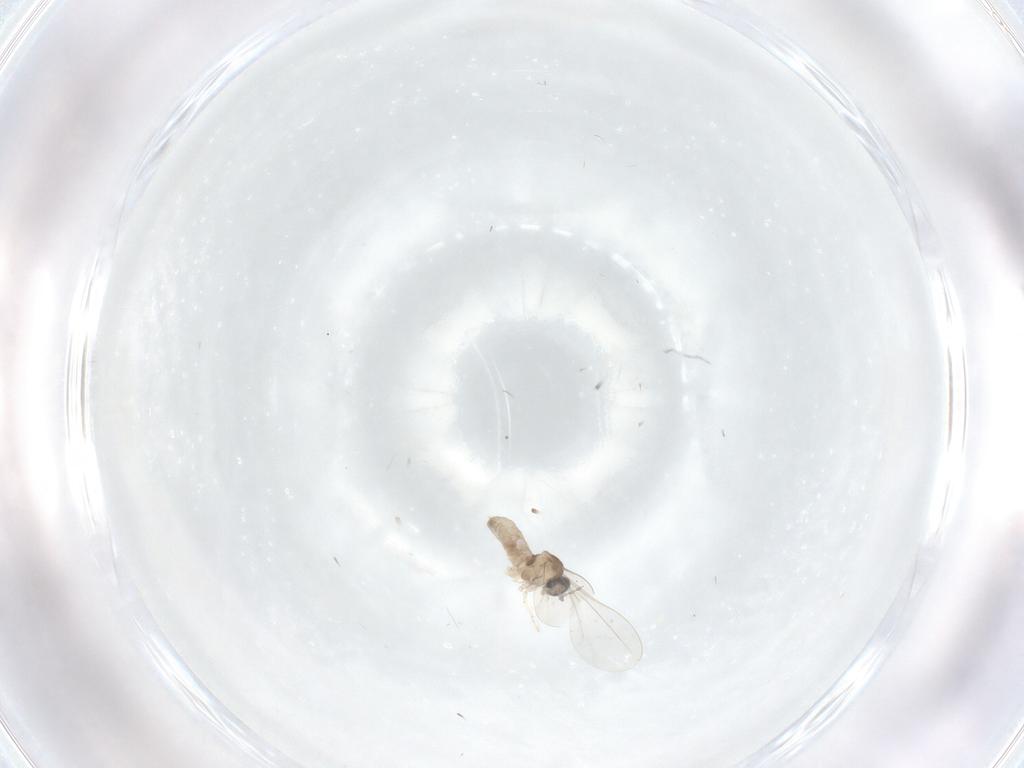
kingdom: Animalia
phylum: Arthropoda
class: Insecta
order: Diptera
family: Cecidomyiidae
